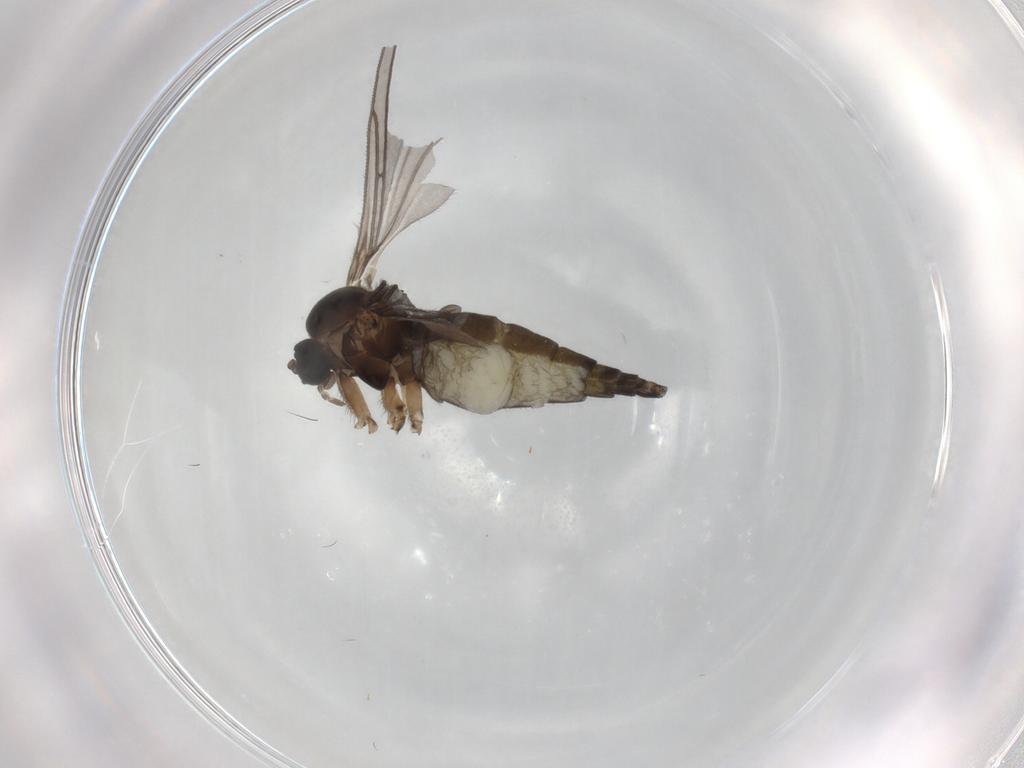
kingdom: Animalia
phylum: Arthropoda
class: Insecta
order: Diptera
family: Sciaridae
